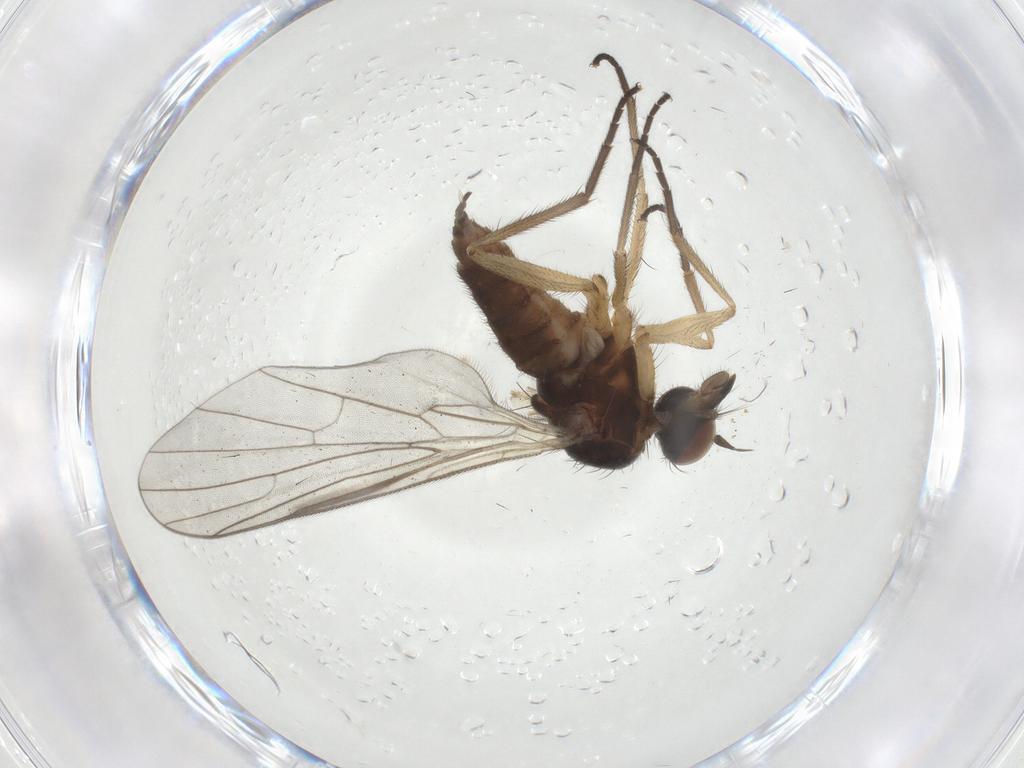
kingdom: Animalia
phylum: Arthropoda
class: Insecta
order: Diptera
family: Empididae
